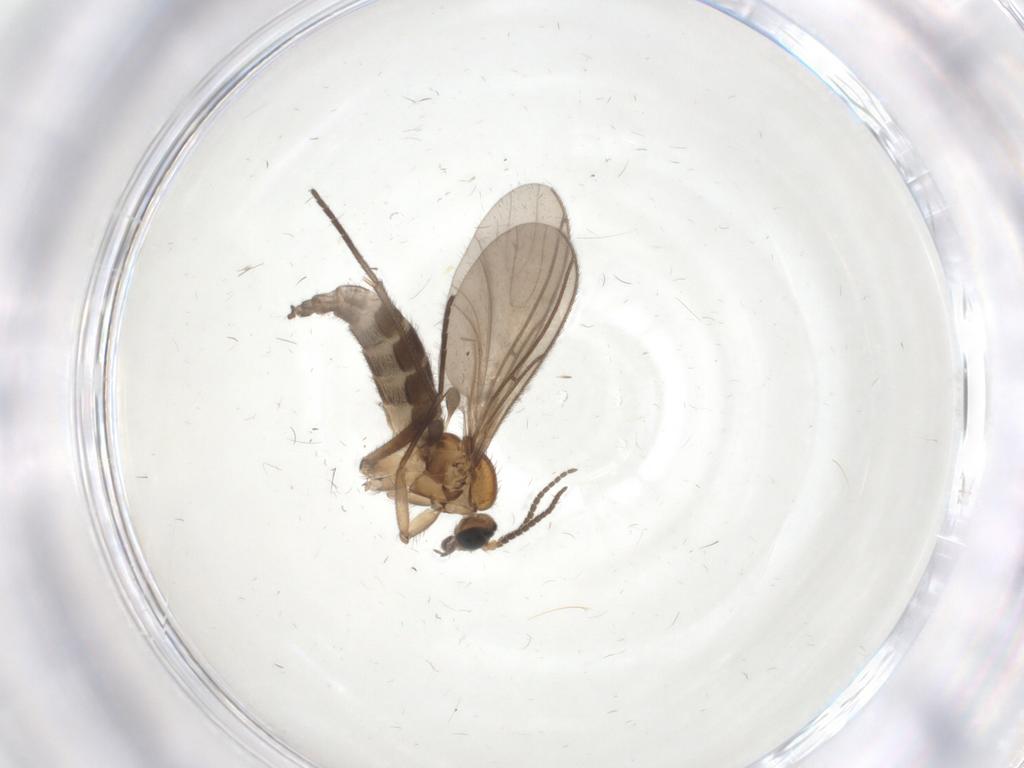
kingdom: Animalia
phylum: Arthropoda
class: Insecta
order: Diptera
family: Sciaridae
